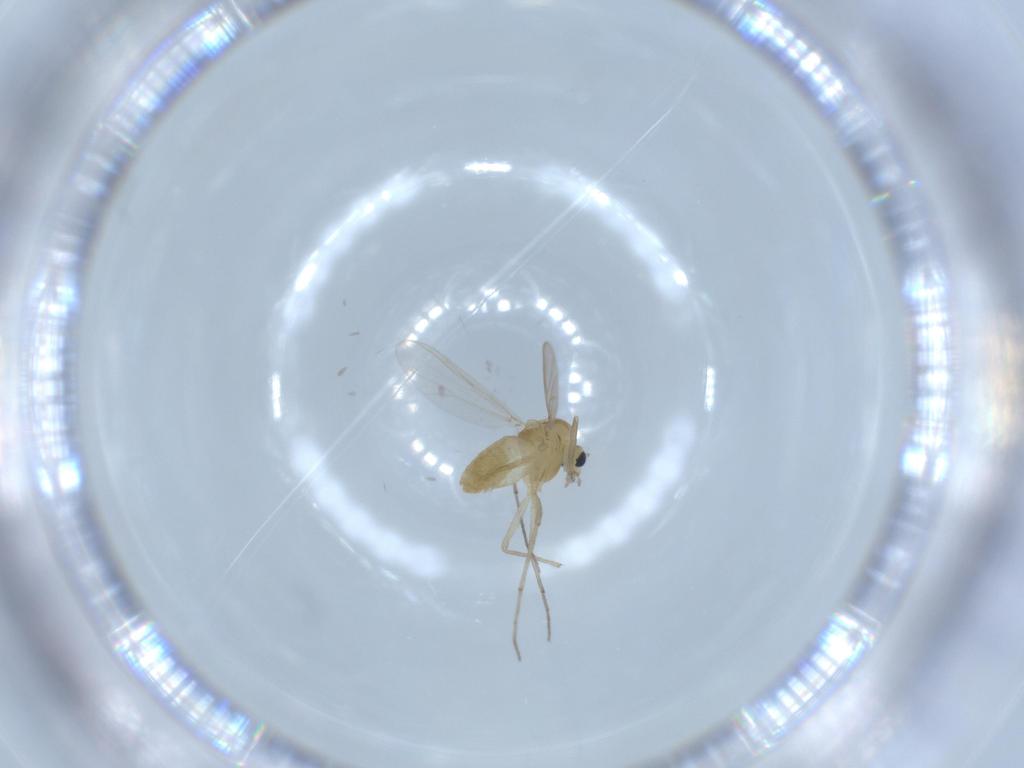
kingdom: Animalia
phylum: Arthropoda
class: Insecta
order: Diptera
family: Chironomidae
